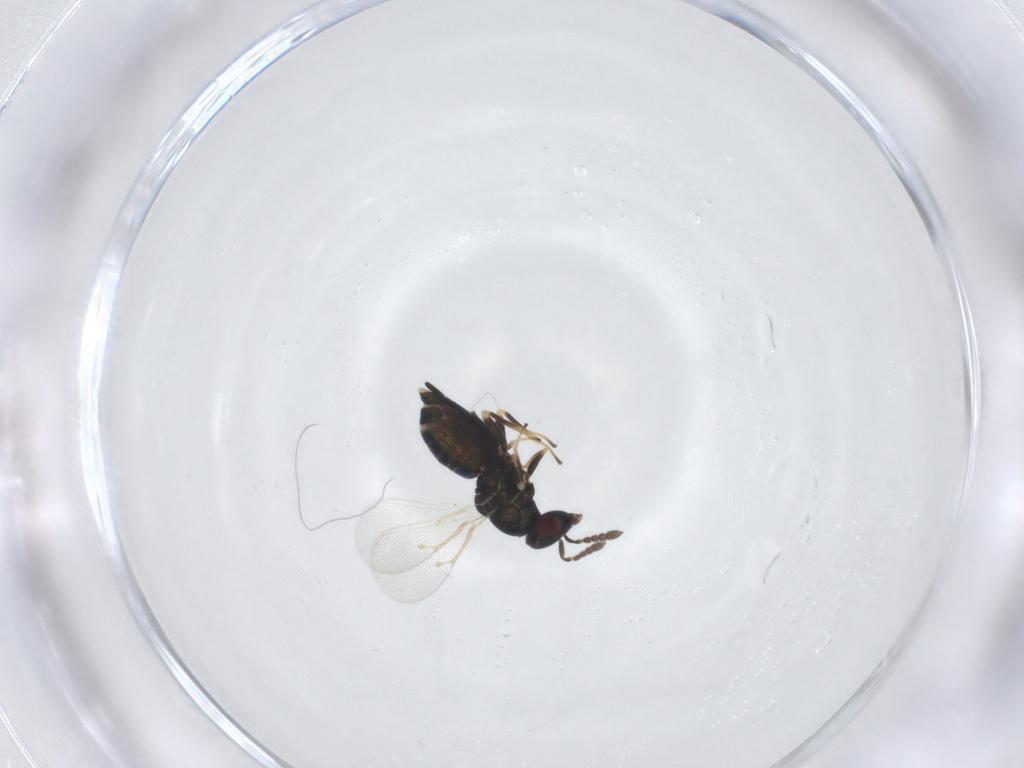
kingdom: Animalia
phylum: Arthropoda
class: Insecta
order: Hymenoptera
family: Eulophidae
